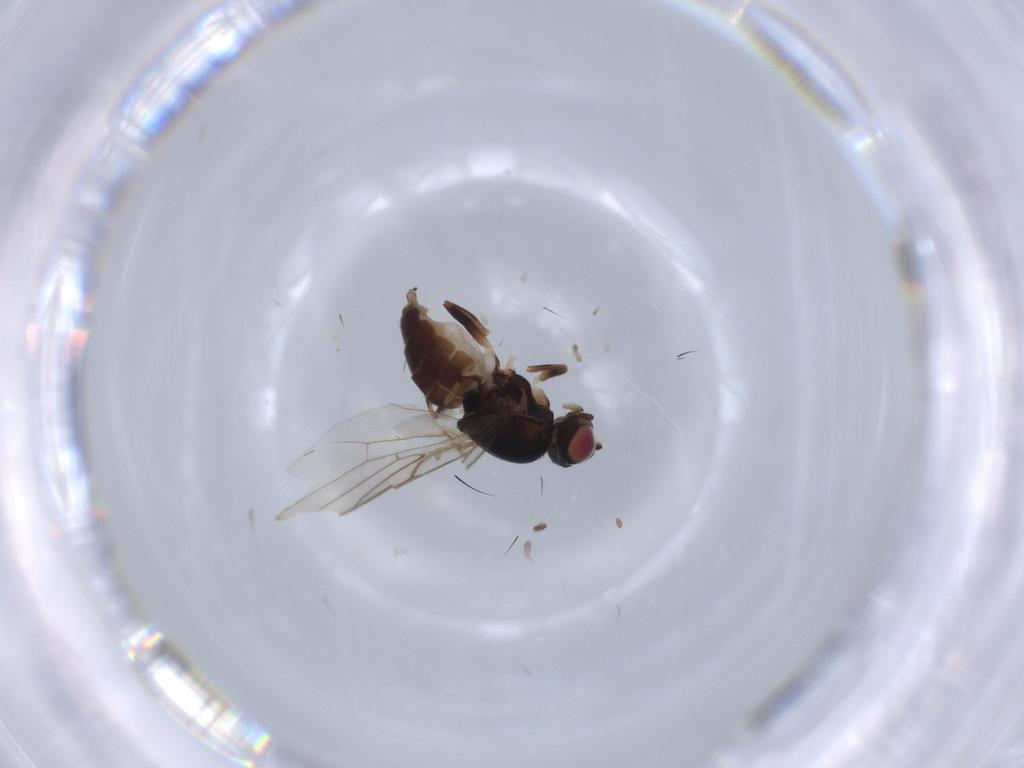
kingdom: Animalia
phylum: Arthropoda
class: Insecta
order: Diptera
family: Chloropidae
